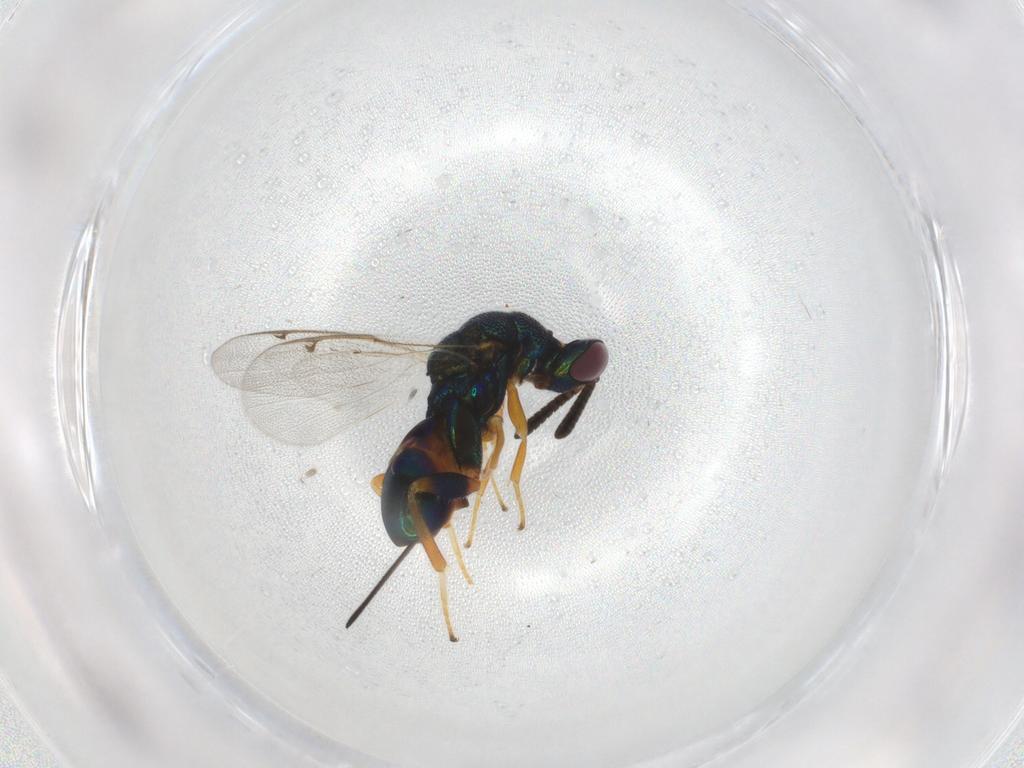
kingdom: Animalia
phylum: Arthropoda
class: Insecta
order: Hymenoptera
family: Torymidae
